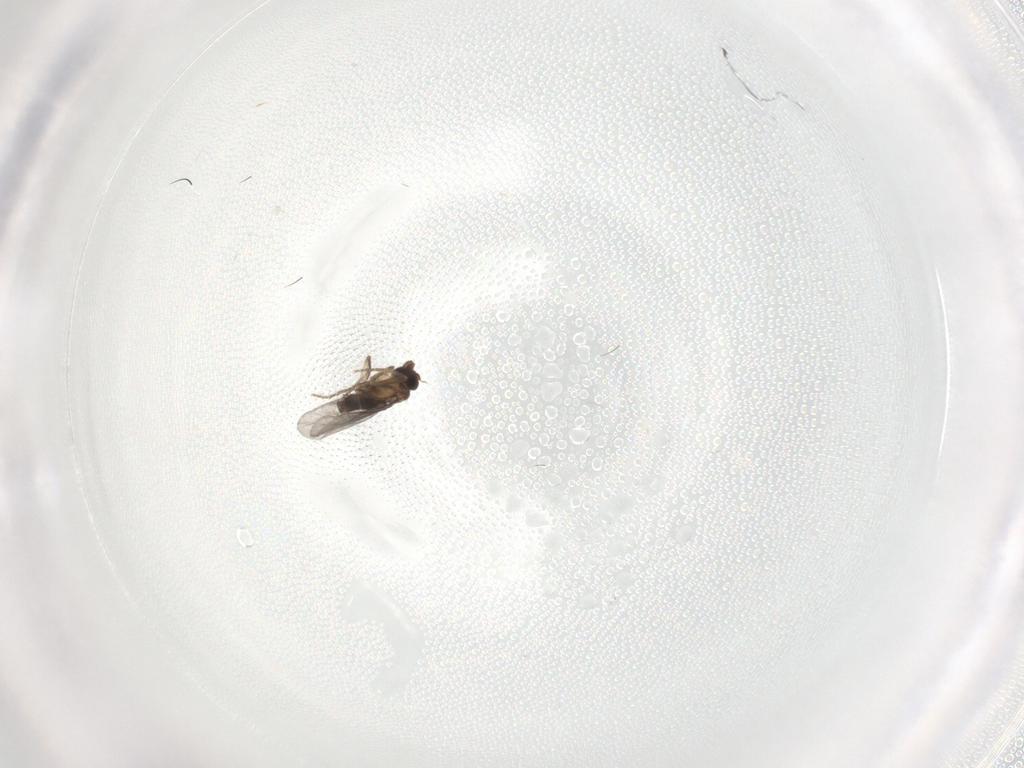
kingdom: Animalia
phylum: Arthropoda
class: Insecta
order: Diptera
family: Dolichopodidae
